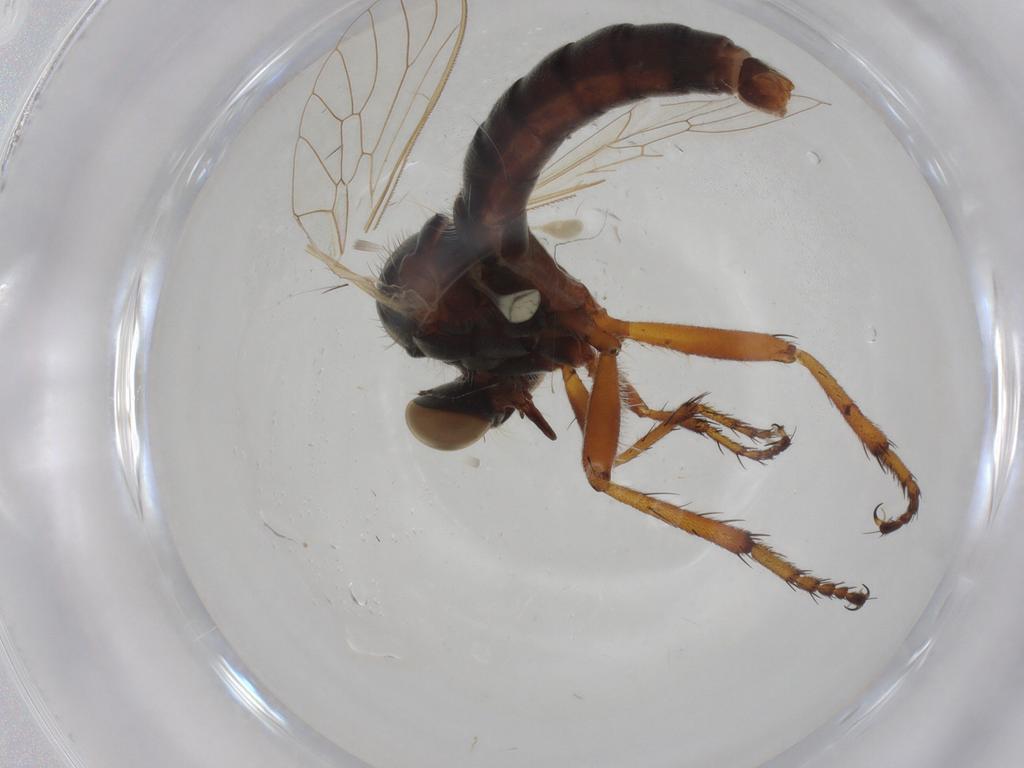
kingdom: Animalia
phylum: Arthropoda
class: Insecta
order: Diptera
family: Asilidae
